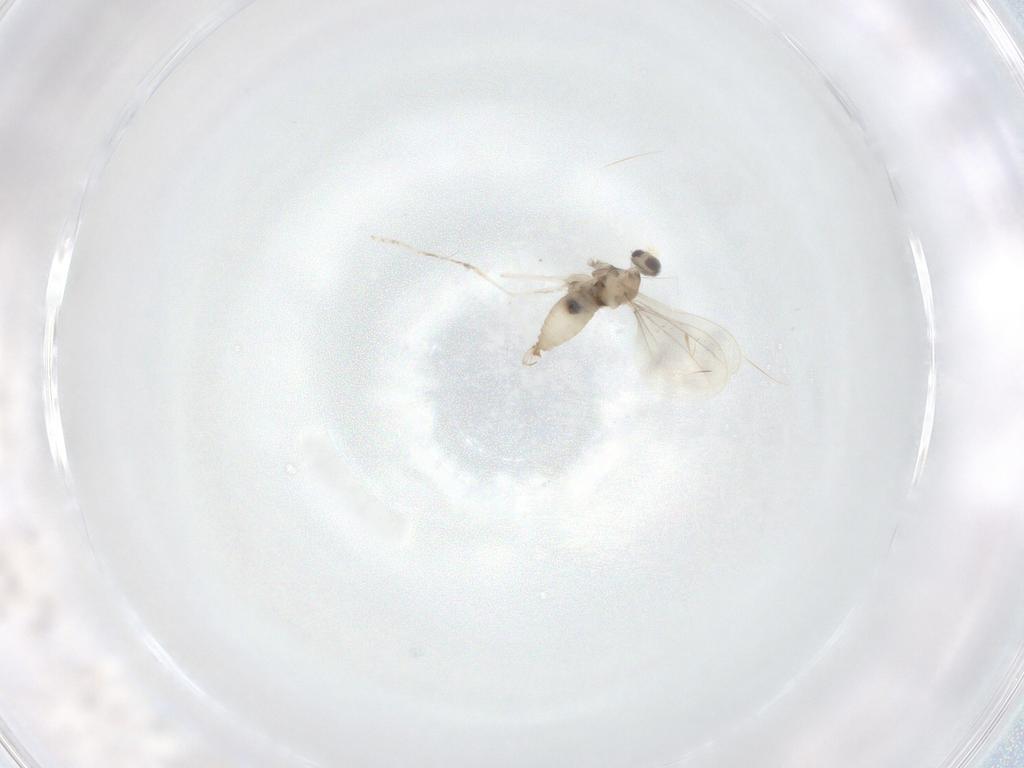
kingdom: Animalia
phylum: Arthropoda
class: Insecta
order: Diptera
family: Cecidomyiidae
